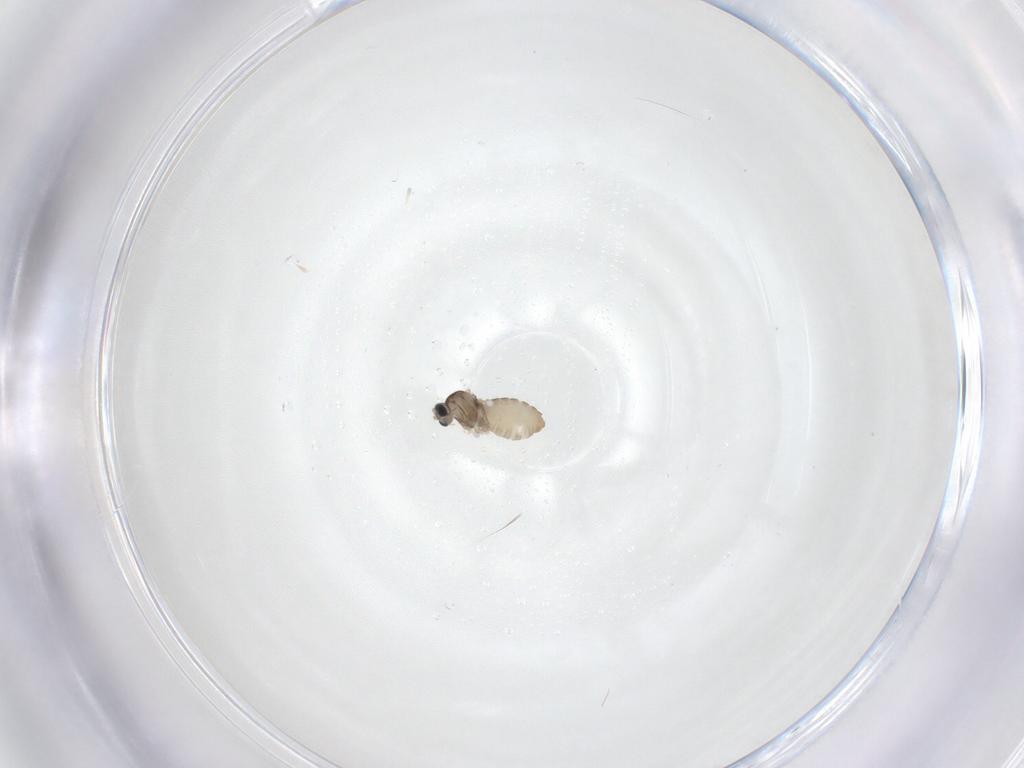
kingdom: Animalia
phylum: Arthropoda
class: Insecta
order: Diptera
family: Cecidomyiidae
